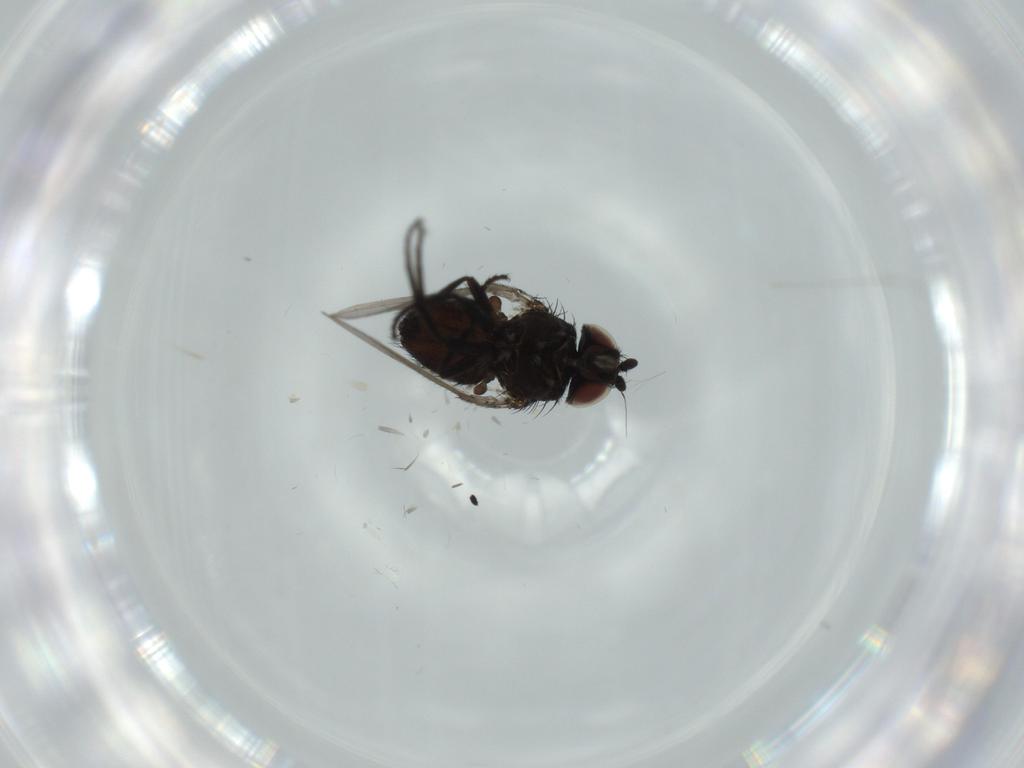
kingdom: Animalia
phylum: Arthropoda
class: Insecta
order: Diptera
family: Milichiidae
